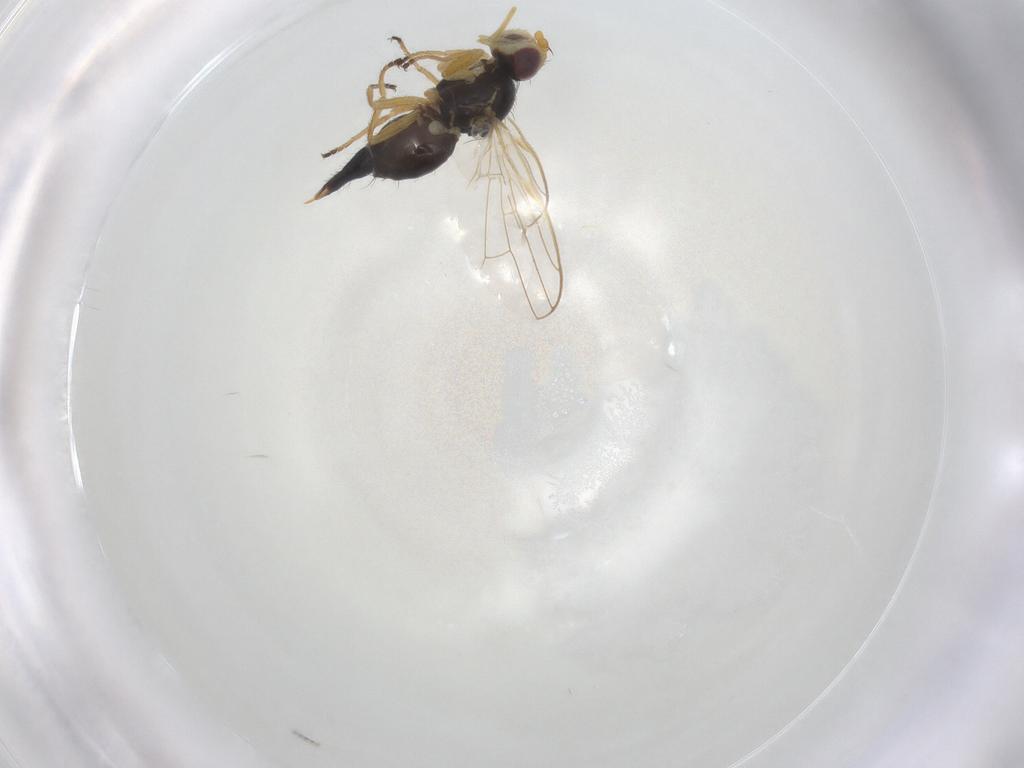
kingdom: Animalia
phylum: Arthropoda
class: Insecta
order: Diptera
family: Tephritidae
